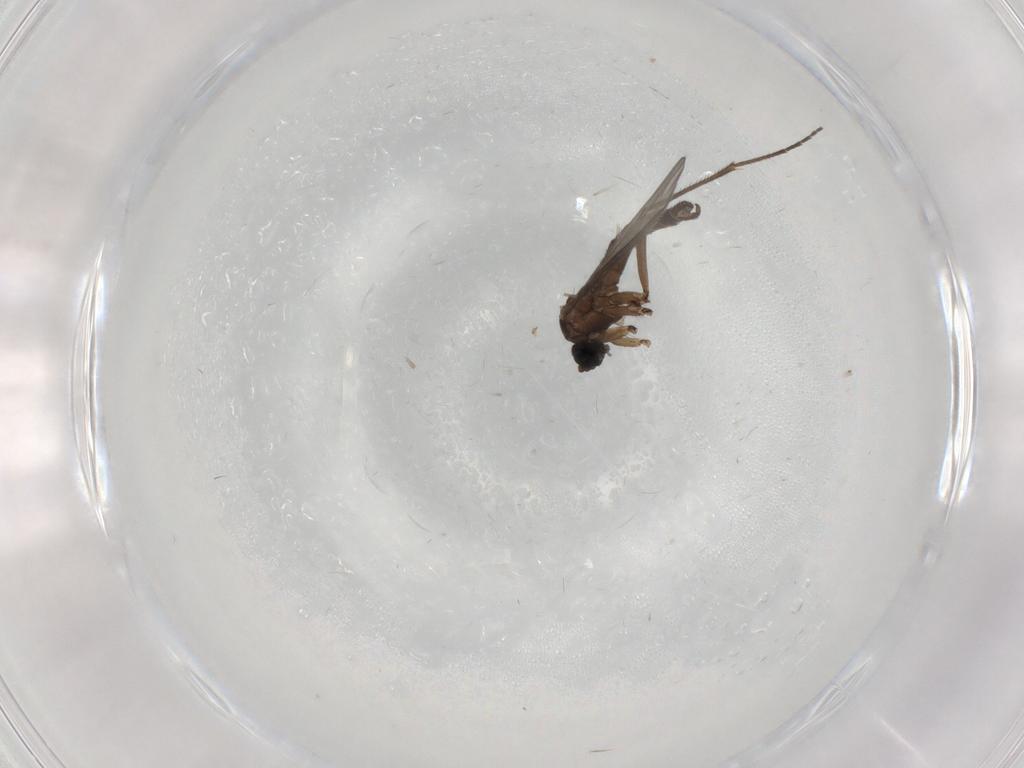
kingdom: Animalia
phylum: Arthropoda
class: Insecta
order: Diptera
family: Sciaridae
